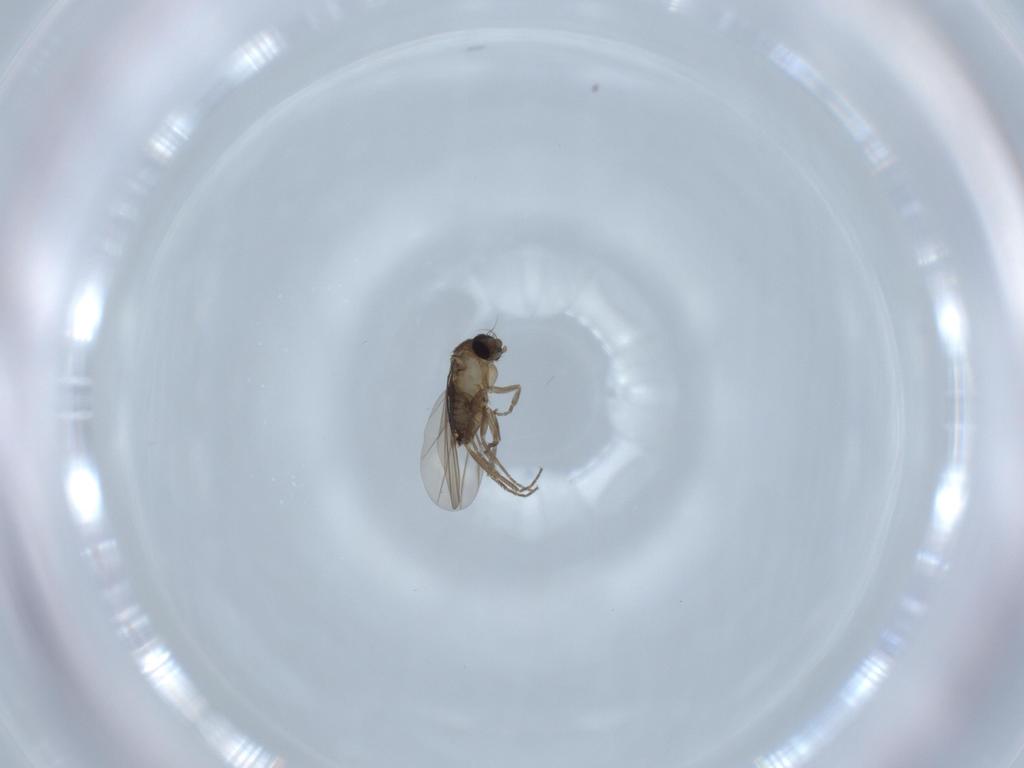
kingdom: Animalia
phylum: Arthropoda
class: Insecta
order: Diptera
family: Phoridae
